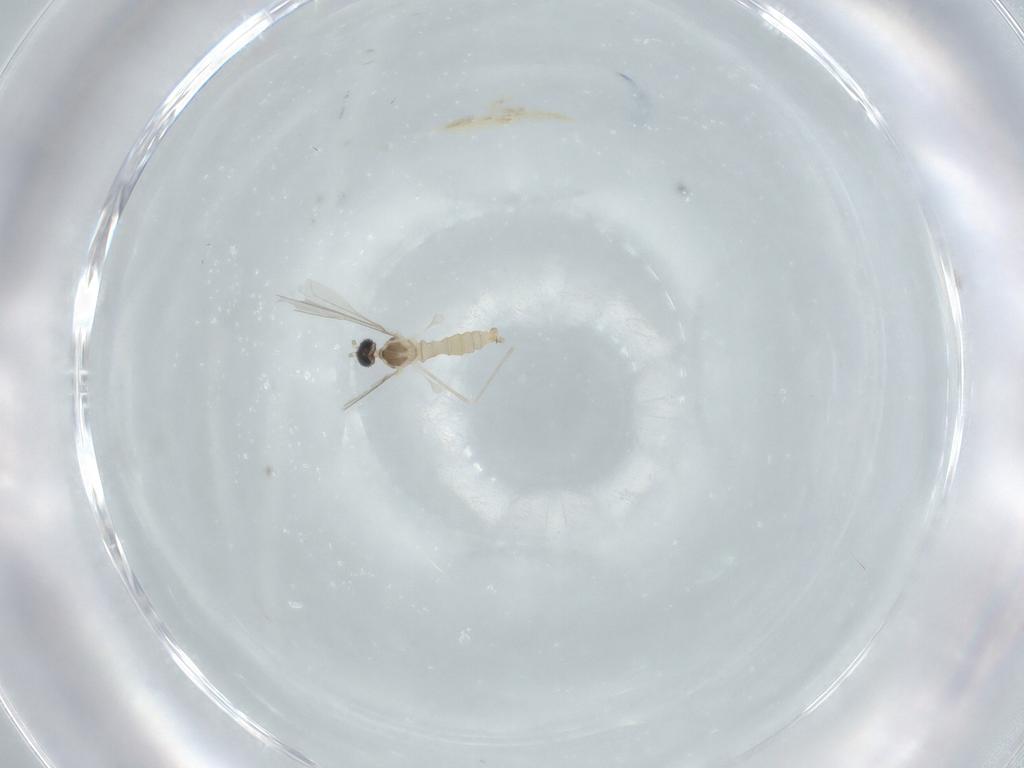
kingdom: Animalia
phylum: Arthropoda
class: Insecta
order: Diptera
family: Cecidomyiidae
